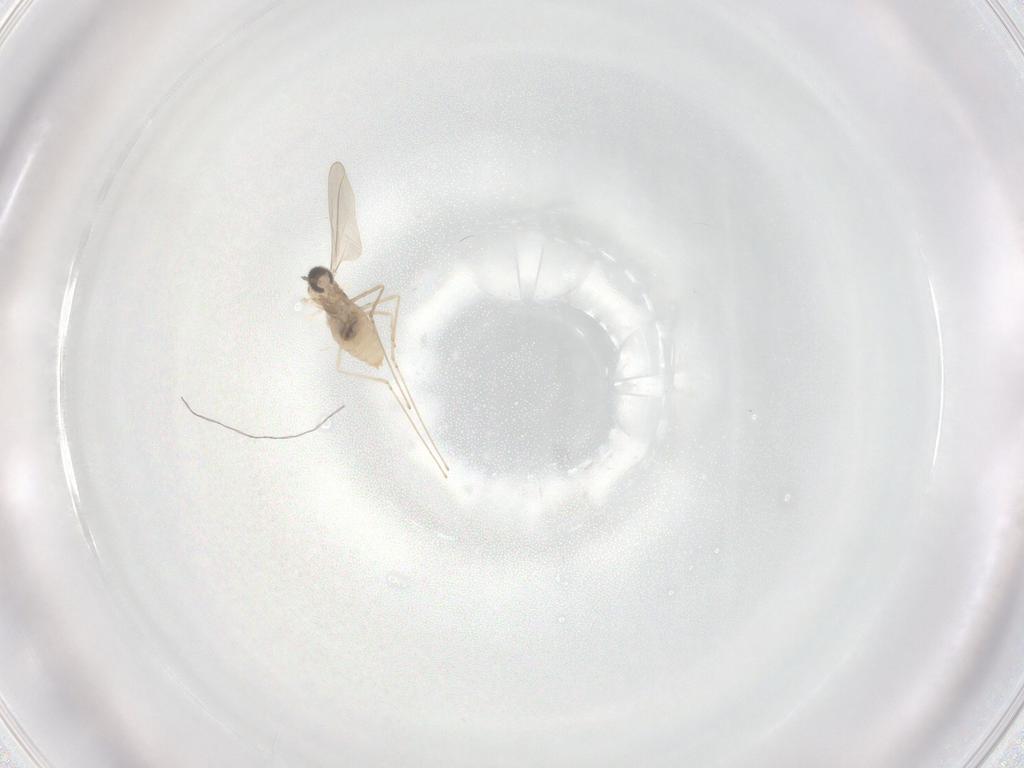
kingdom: Animalia
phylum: Arthropoda
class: Insecta
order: Diptera
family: Cecidomyiidae
